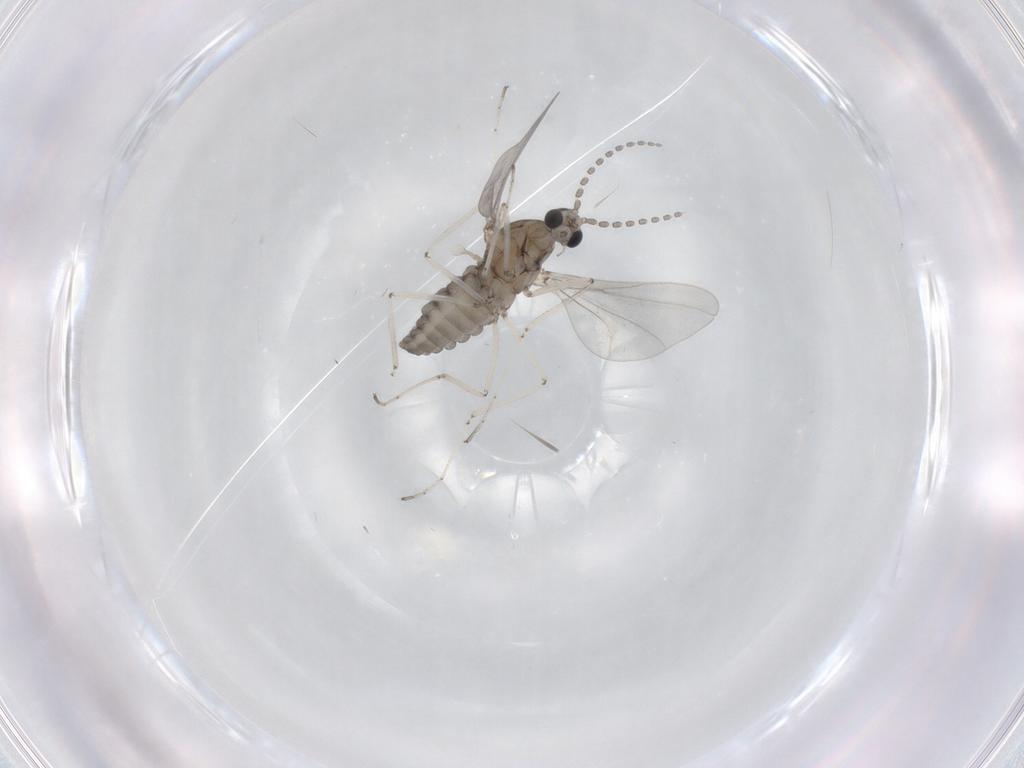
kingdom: Animalia
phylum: Arthropoda
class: Insecta
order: Diptera
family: Cecidomyiidae
